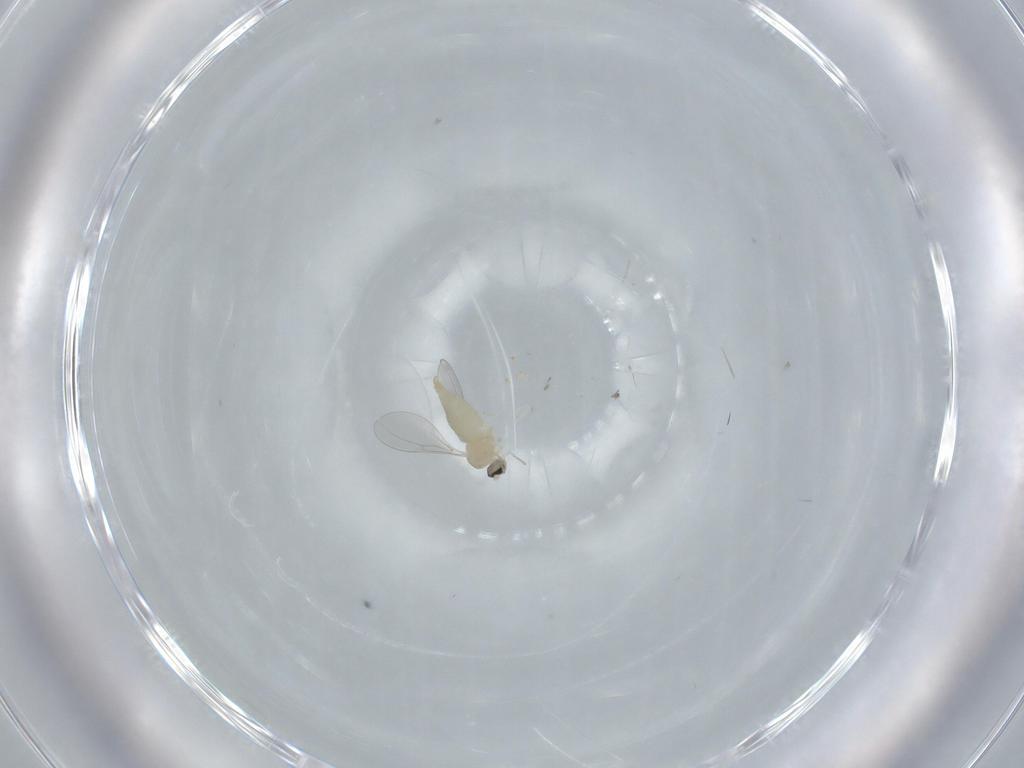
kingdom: Animalia
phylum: Arthropoda
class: Insecta
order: Diptera
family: Cecidomyiidae
